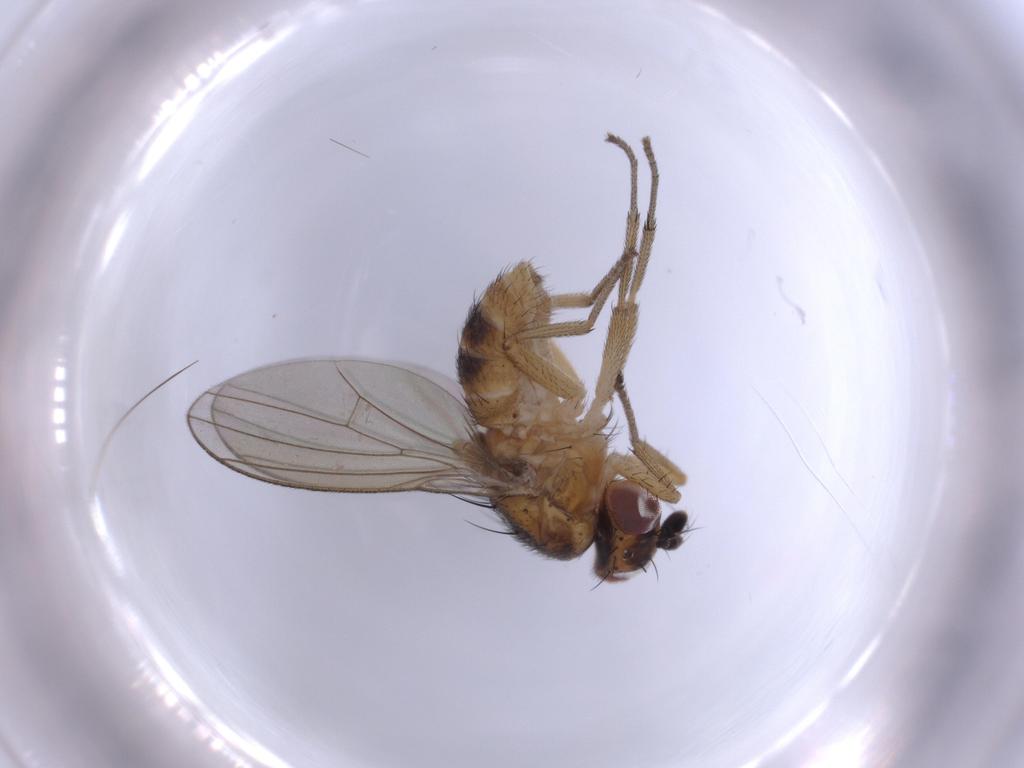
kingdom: Animalia
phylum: Arthropoda
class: Insecta
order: Diptera
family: Lauxaniidae
